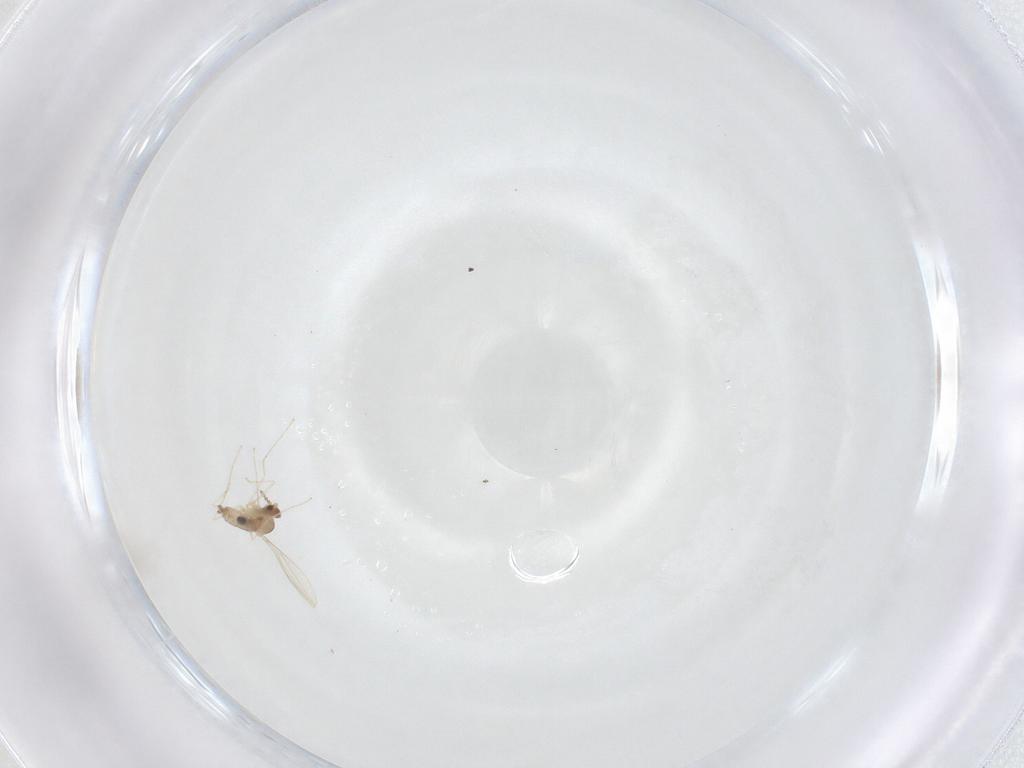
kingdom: Animalia
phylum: Arthropoda
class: Insecta
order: Diptera
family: Cecidomyiidae
